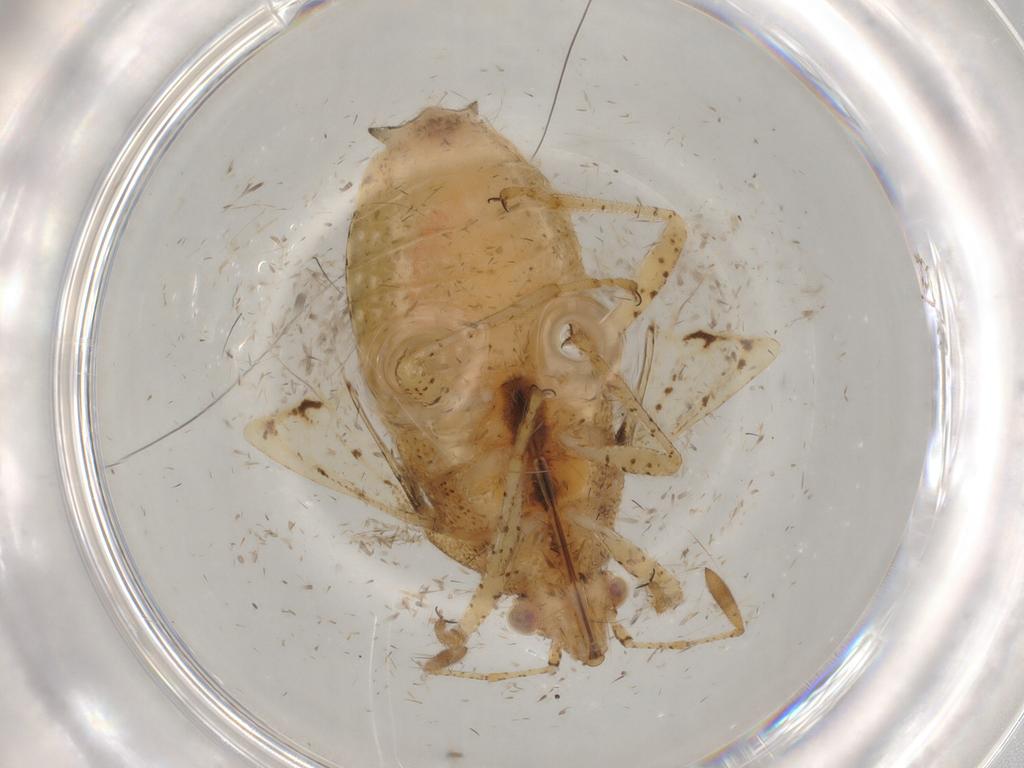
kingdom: Animalia
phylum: Arthropoda
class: Insecta
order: Hemiptera
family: Rhopalidae
